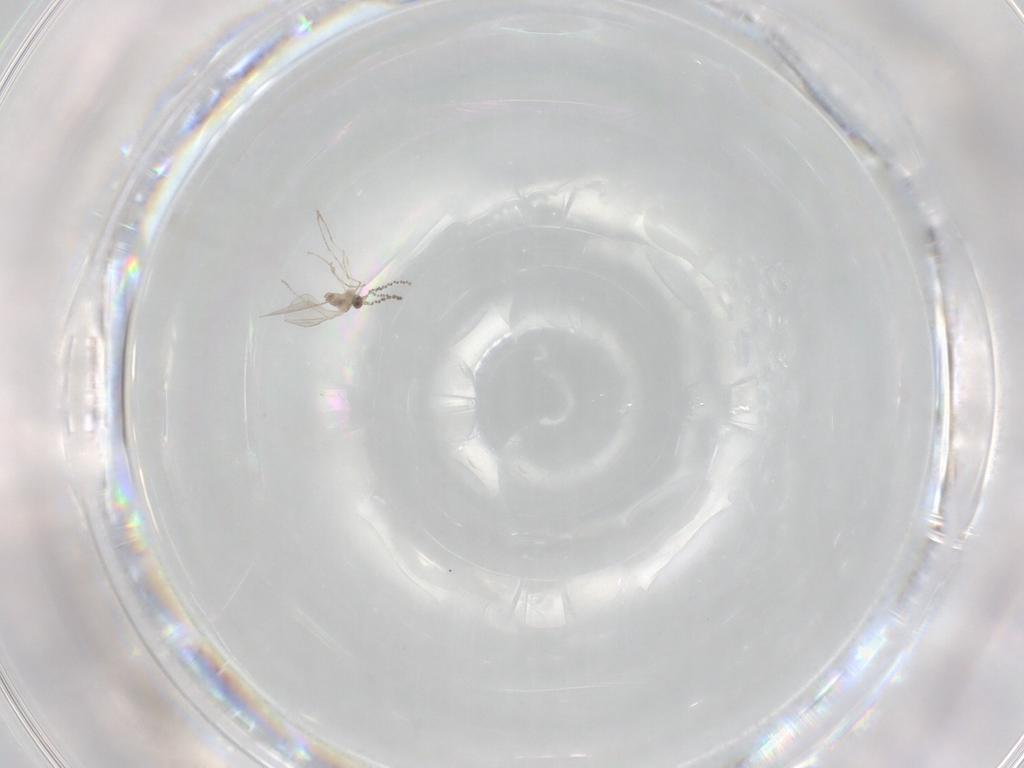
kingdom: Animalia
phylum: Arthropoda
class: Insecta
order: Diptera
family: Cecidomyiidae
